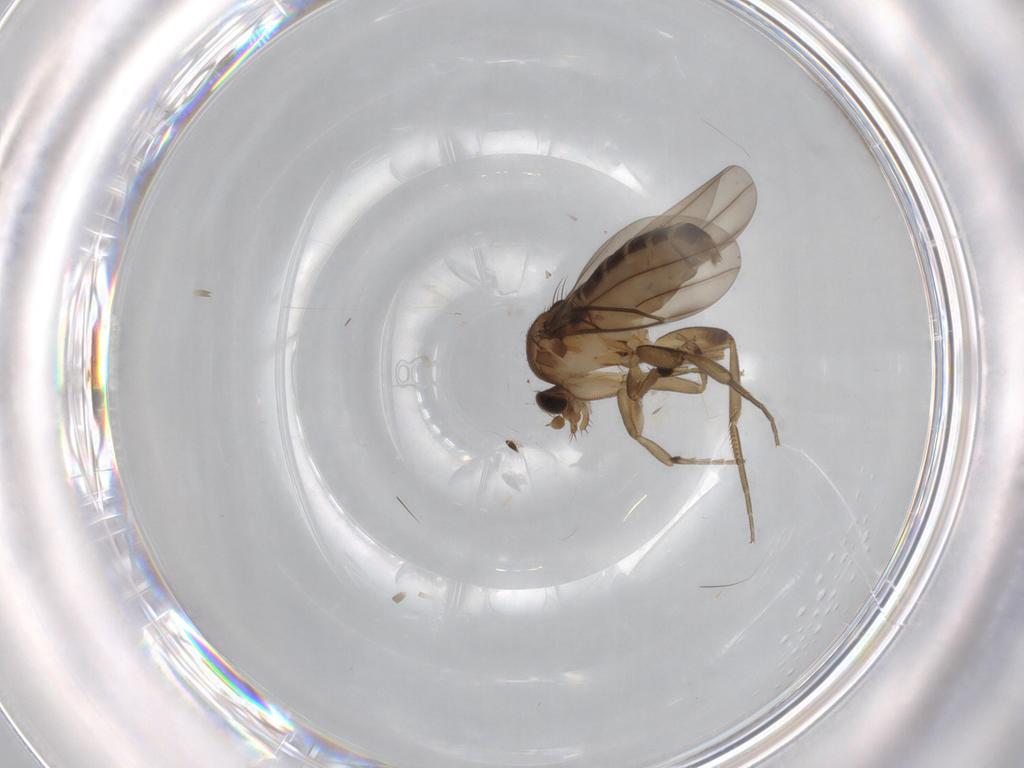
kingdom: Animalia
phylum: Arthropoda
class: Insecta
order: Diptera
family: Phoridae
